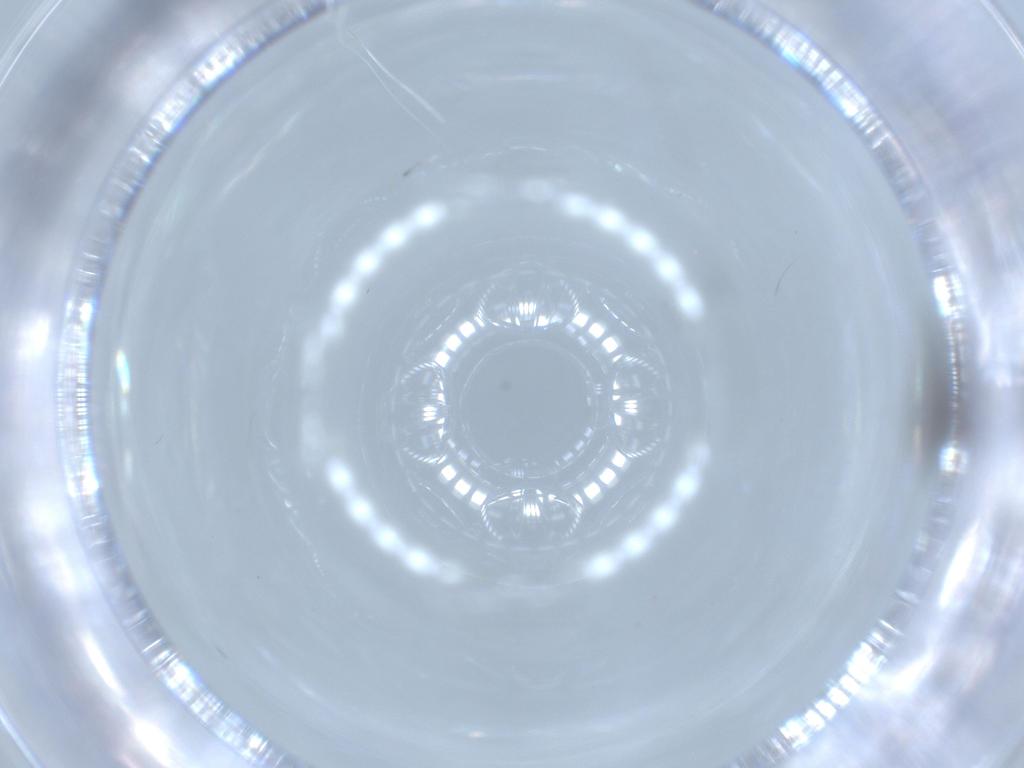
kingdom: Animalia
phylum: Arthropoda
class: Insecta
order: Diptera
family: Psychodidae
